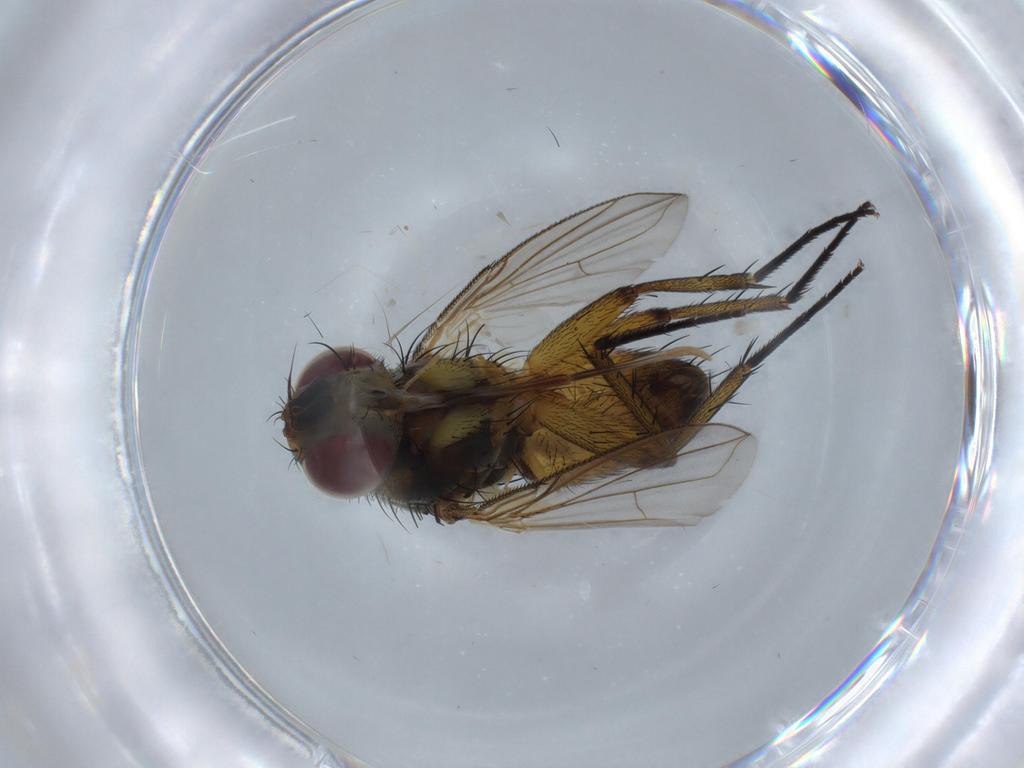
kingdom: Animalia
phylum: Arthropoda
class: Insecta
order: Diptera
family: Tachinidae
